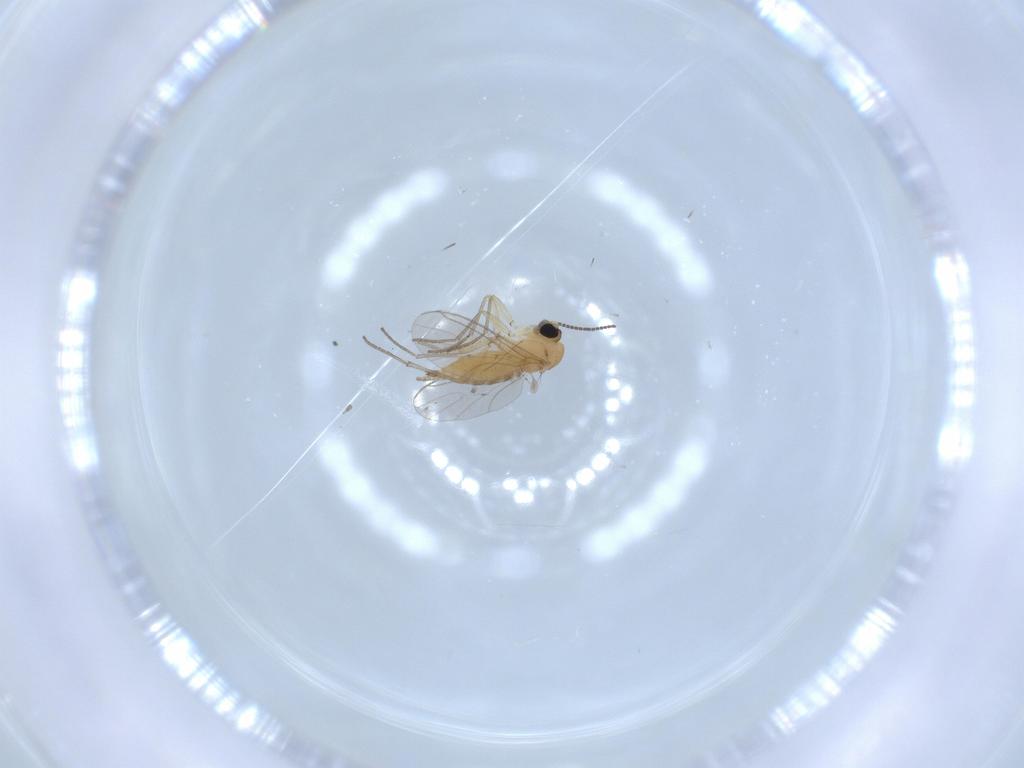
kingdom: Animalia
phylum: Arthropoda
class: Insecta
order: Diptera
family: Sciaridae
